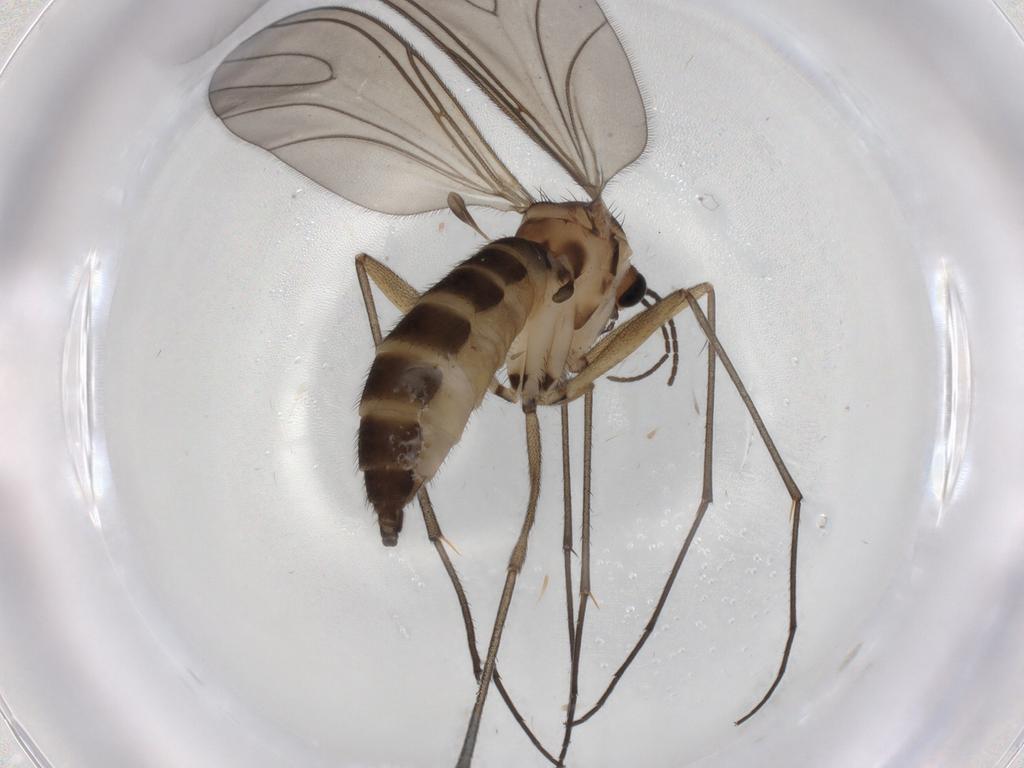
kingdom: Animalia
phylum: Arthropoda
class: Insecta
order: Diptera
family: Sciaridae
